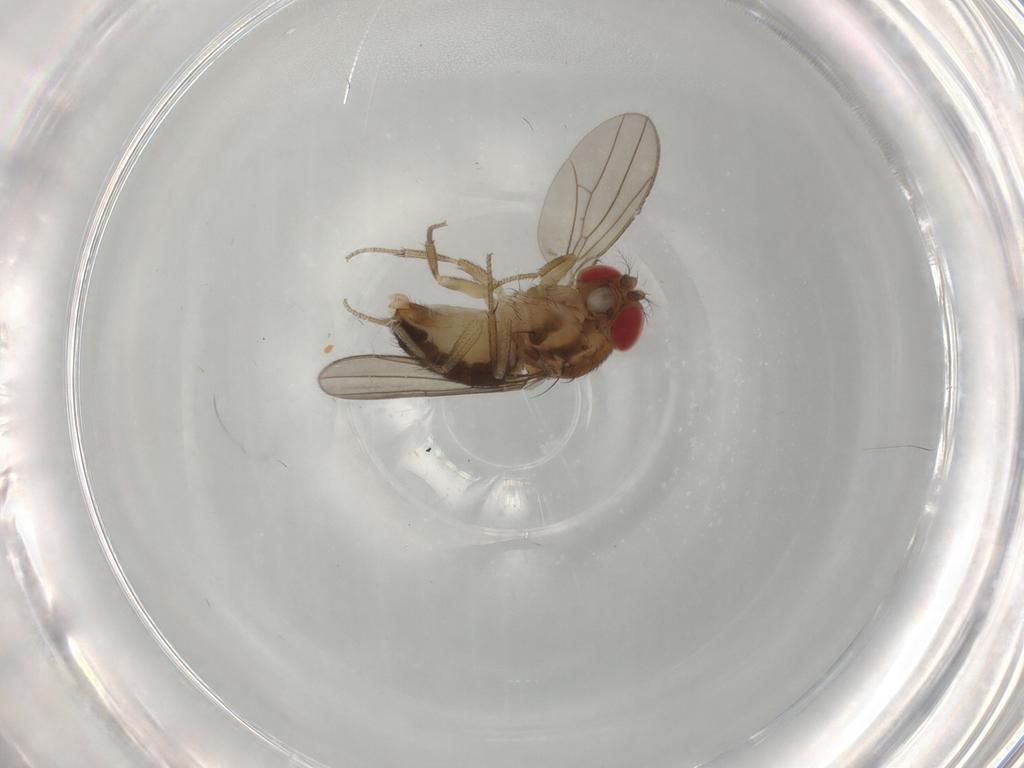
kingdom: Animalia
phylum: Arthropoda
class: Insecta
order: Diptera
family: Drosophilidae
